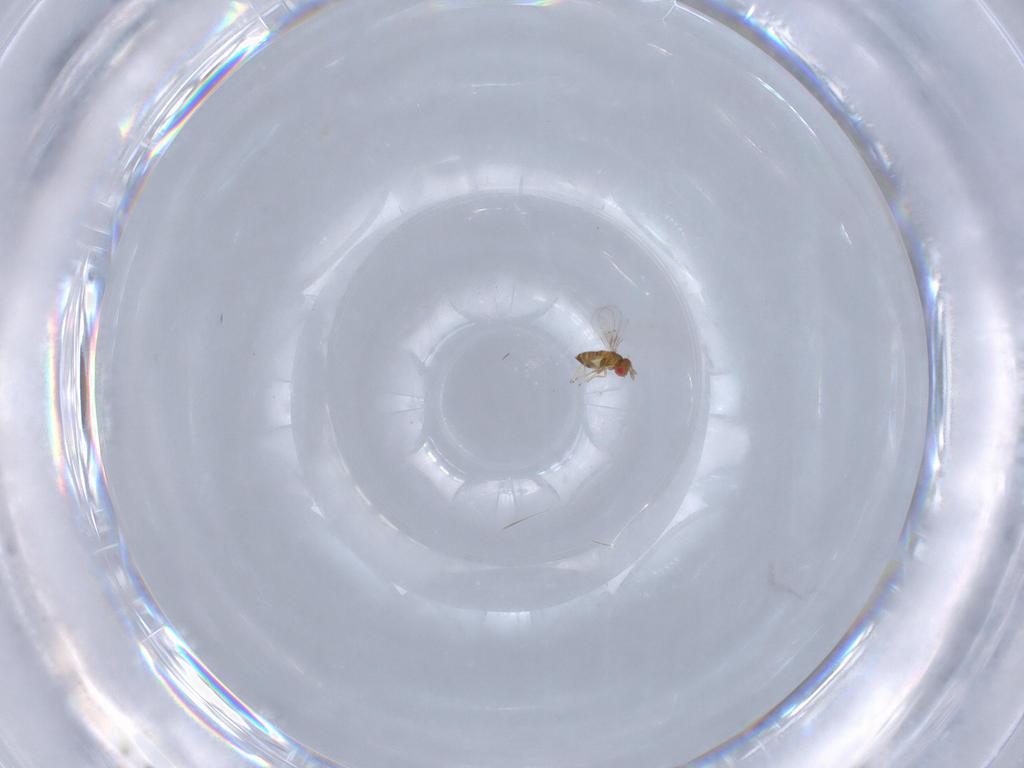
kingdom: Animalia
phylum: Arthropoda
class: Insecta
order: Hymenoptera
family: Trichogrammatidae
